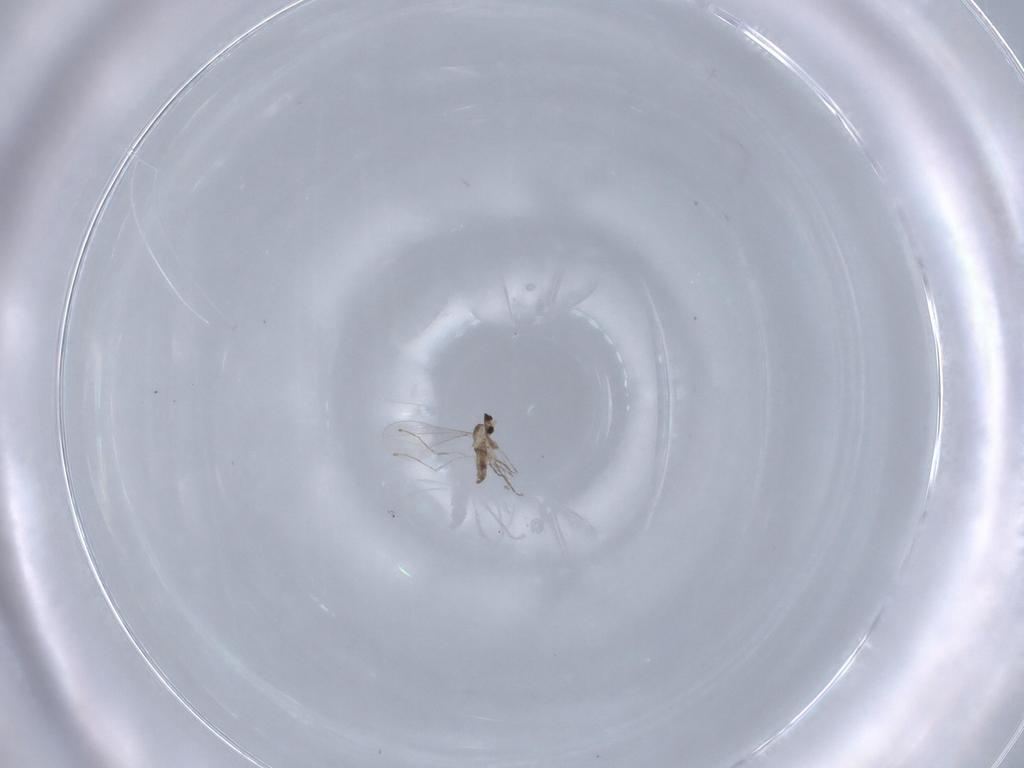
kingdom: Animalia
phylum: Arthropoda
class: Insecta
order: Diptera
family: Cecidomyiidae
